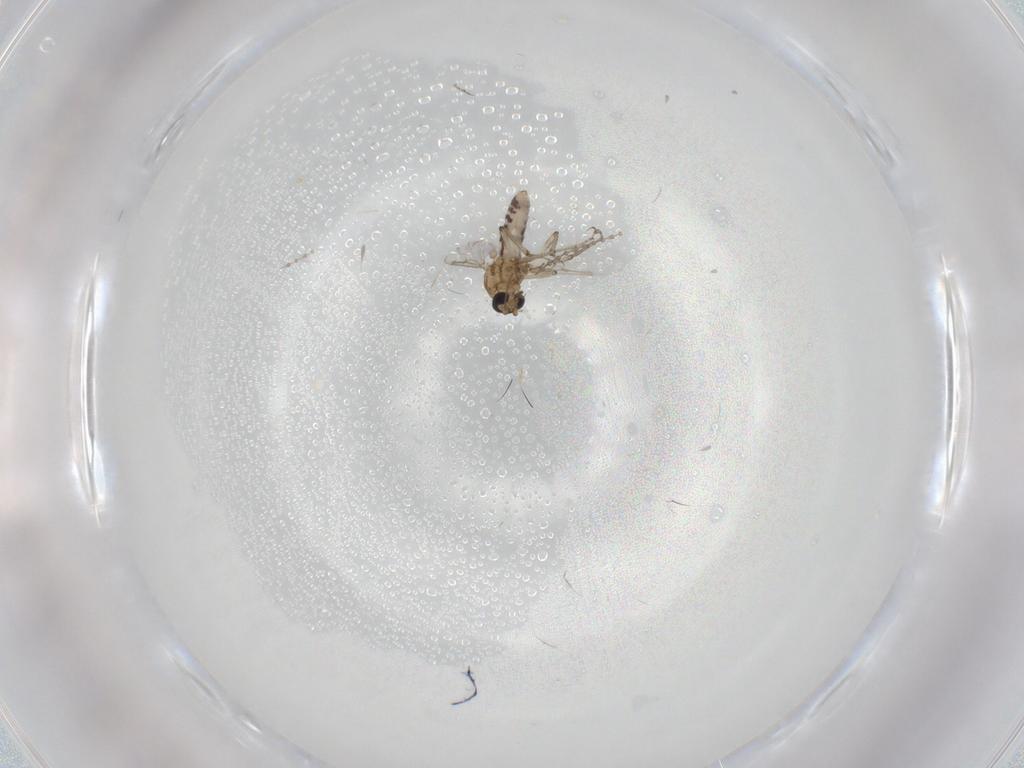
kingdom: Animalia
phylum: Arthropoda
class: Insecta
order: Diptera
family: Ceratopogonidae
